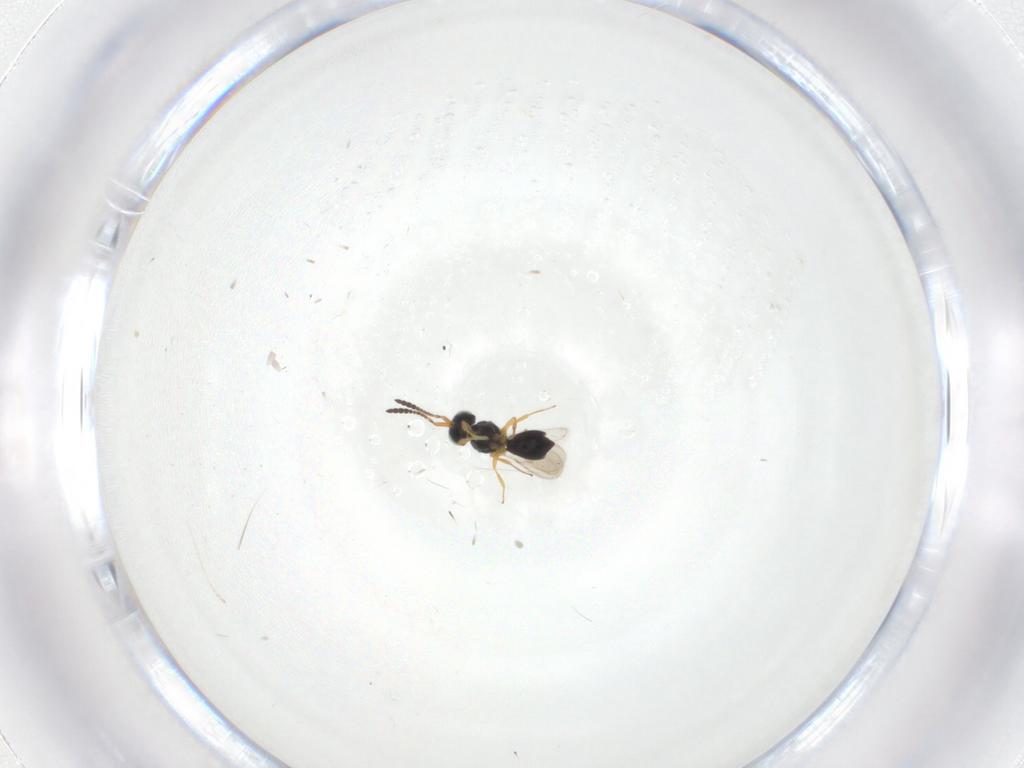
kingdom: Animalia
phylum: Arthropoda
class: Insecta
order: Hymenoptera
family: Scelionidae
